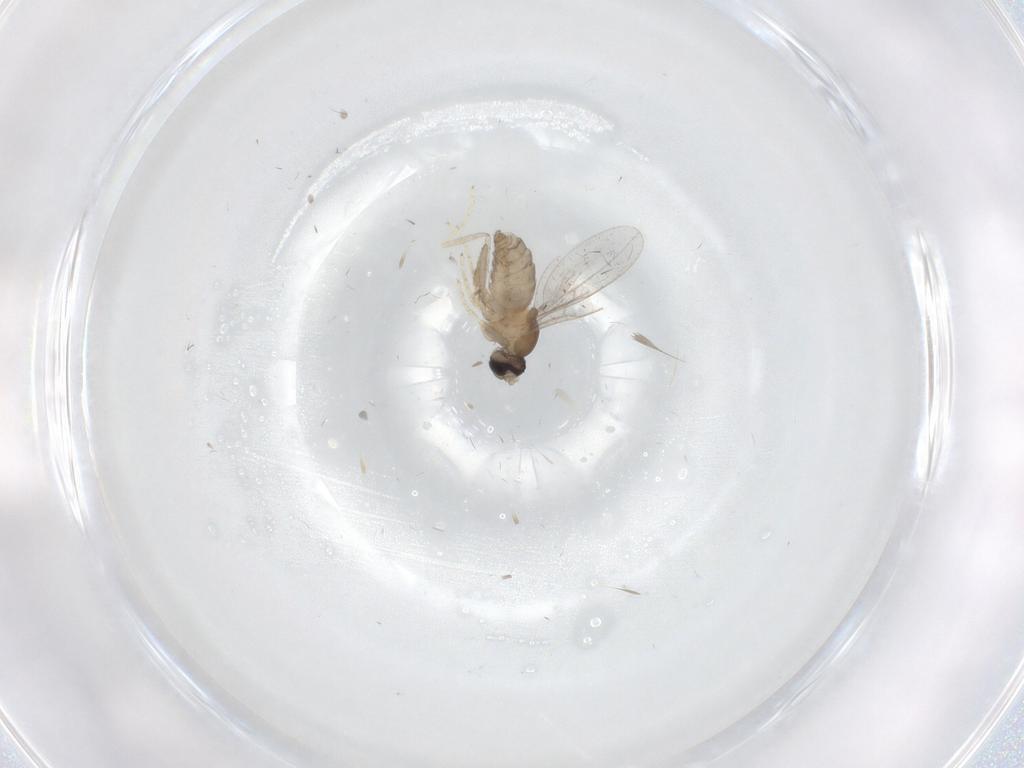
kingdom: Animalia
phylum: Arthropoda
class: Insecta
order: Diptera
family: Cecidomyiidae
